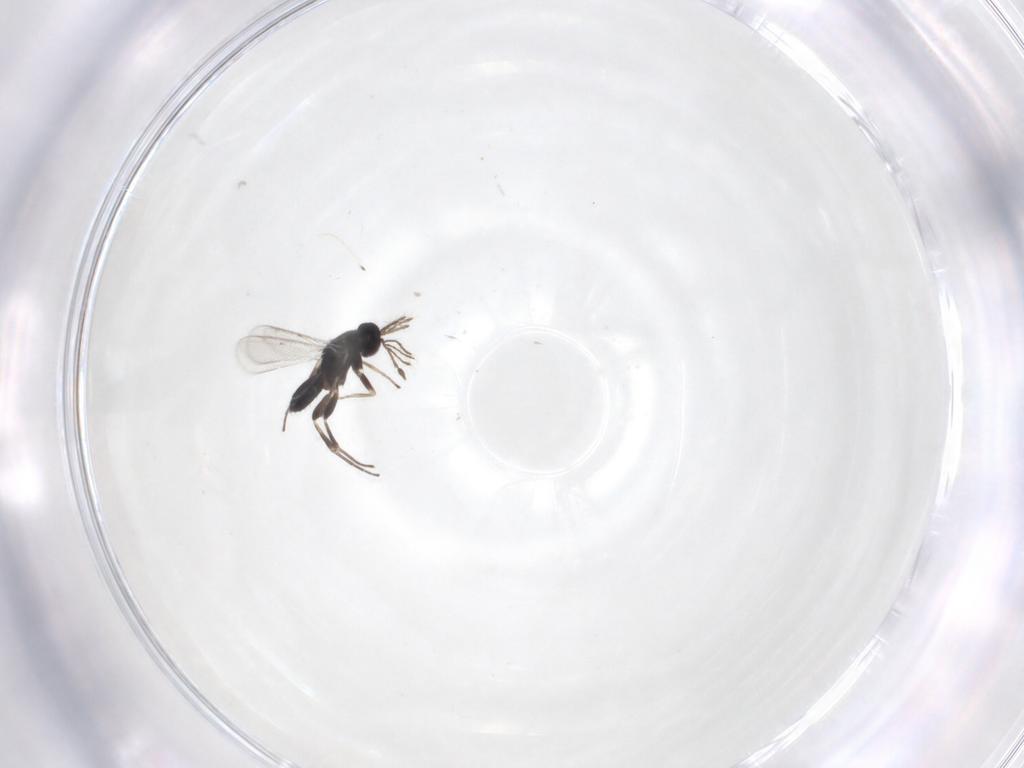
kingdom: Animalia
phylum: Arthropoda
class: Insecta
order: Hymenoptera
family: Eulophidae
